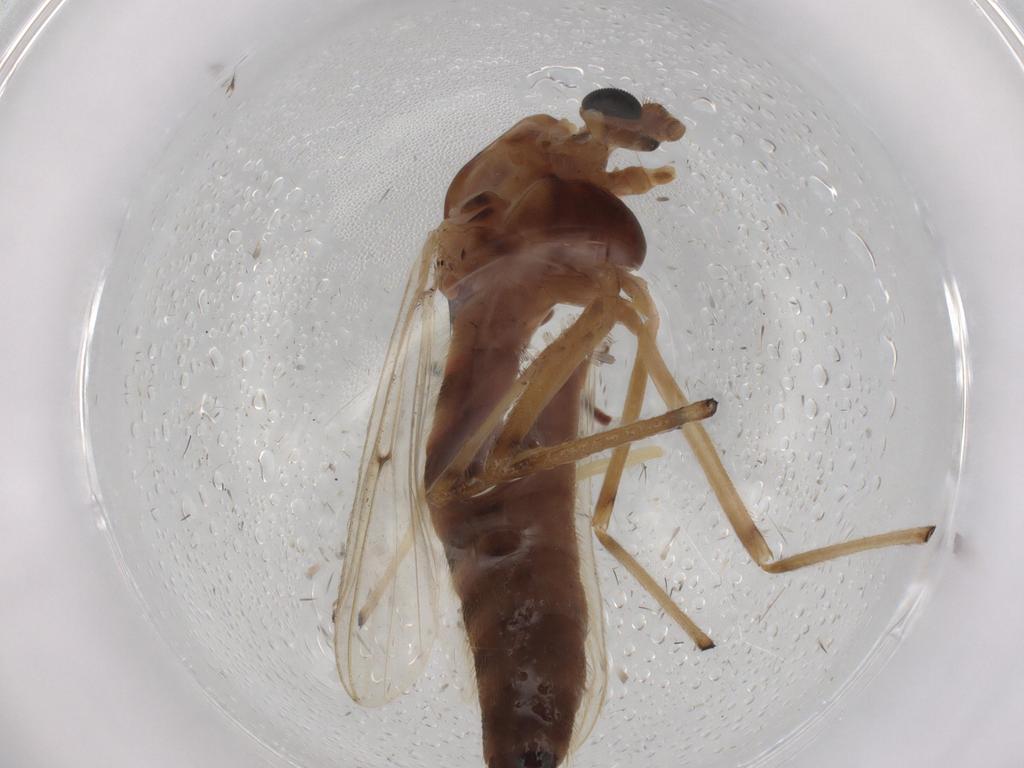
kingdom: Animalia
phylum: Arthropoda
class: Insecta
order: Diptera
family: Chironomidae
